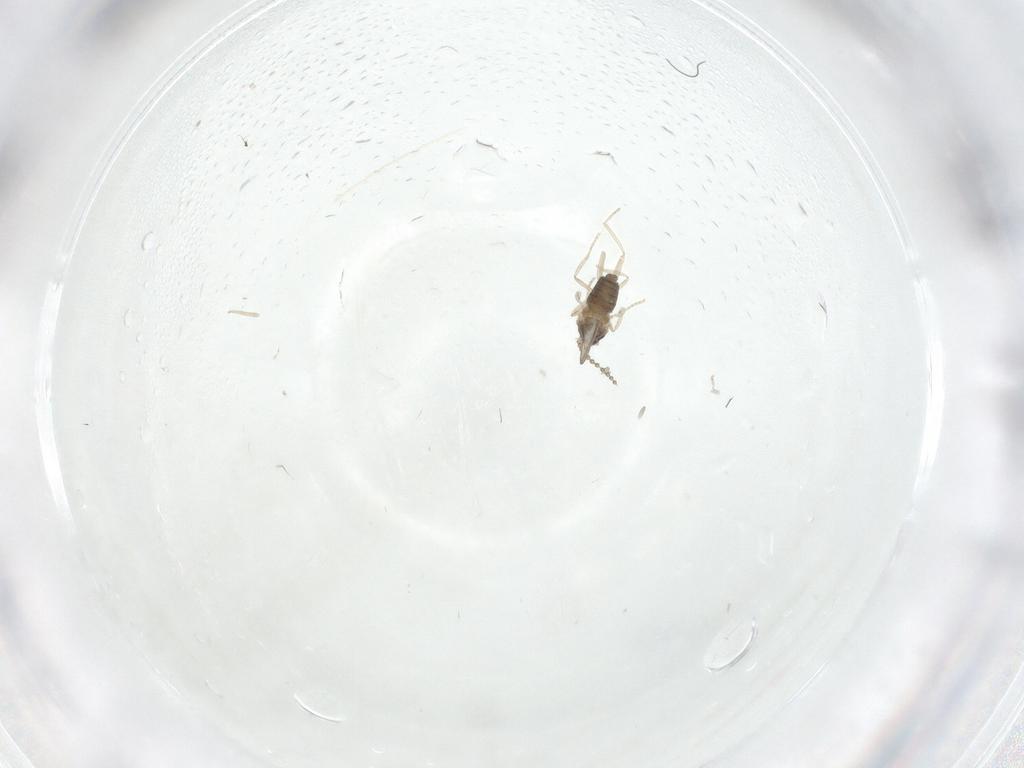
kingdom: Animalia
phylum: Arthropoda
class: Insecta
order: Diptera
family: Cecidomyiidae
